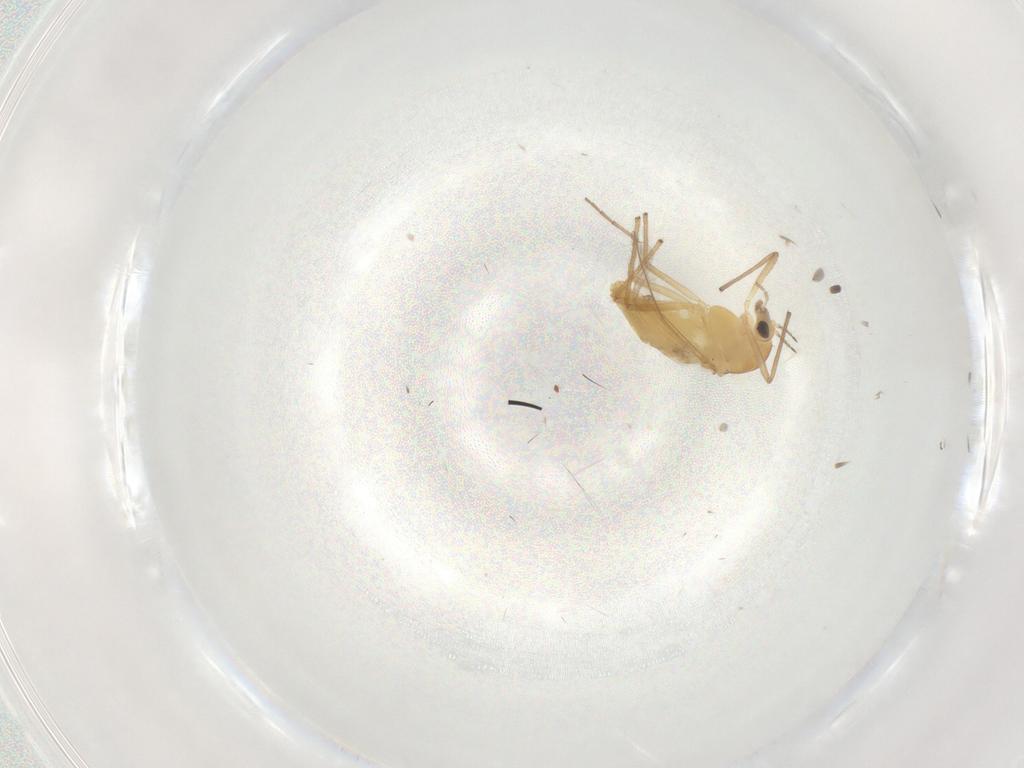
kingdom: Animalia
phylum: Arthropoda
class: Insecta
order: Diptera
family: Chironomidae
